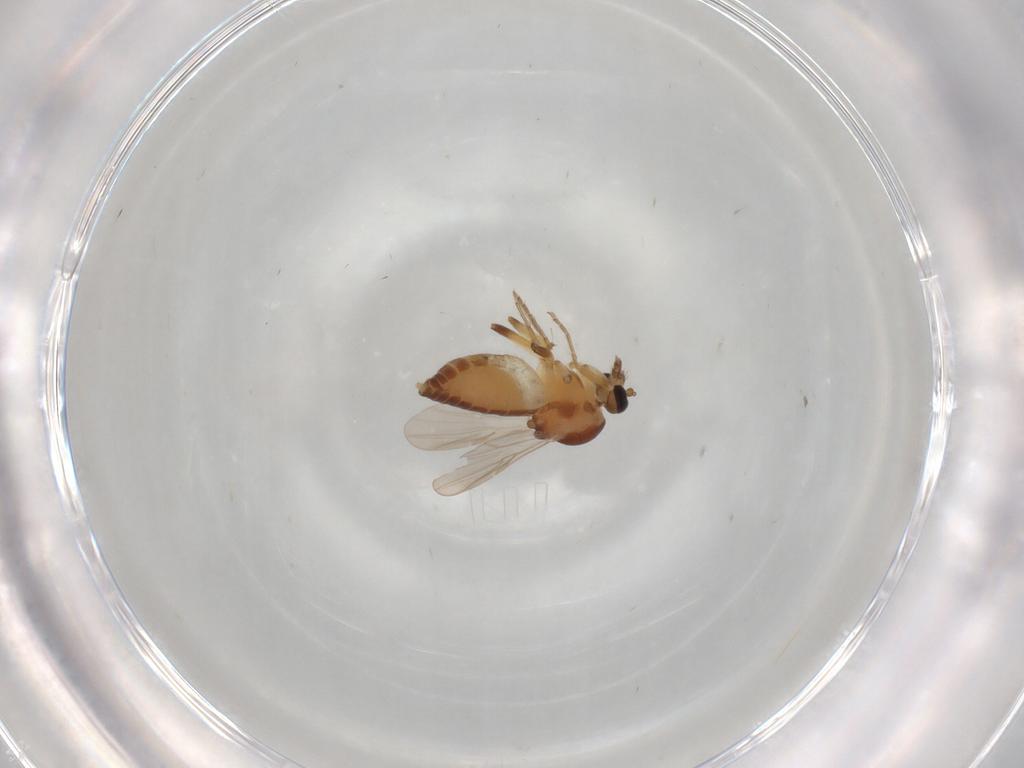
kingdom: Animalia
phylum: Arthropoda
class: Insecta
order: Diptera
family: Ceratopogonidae
